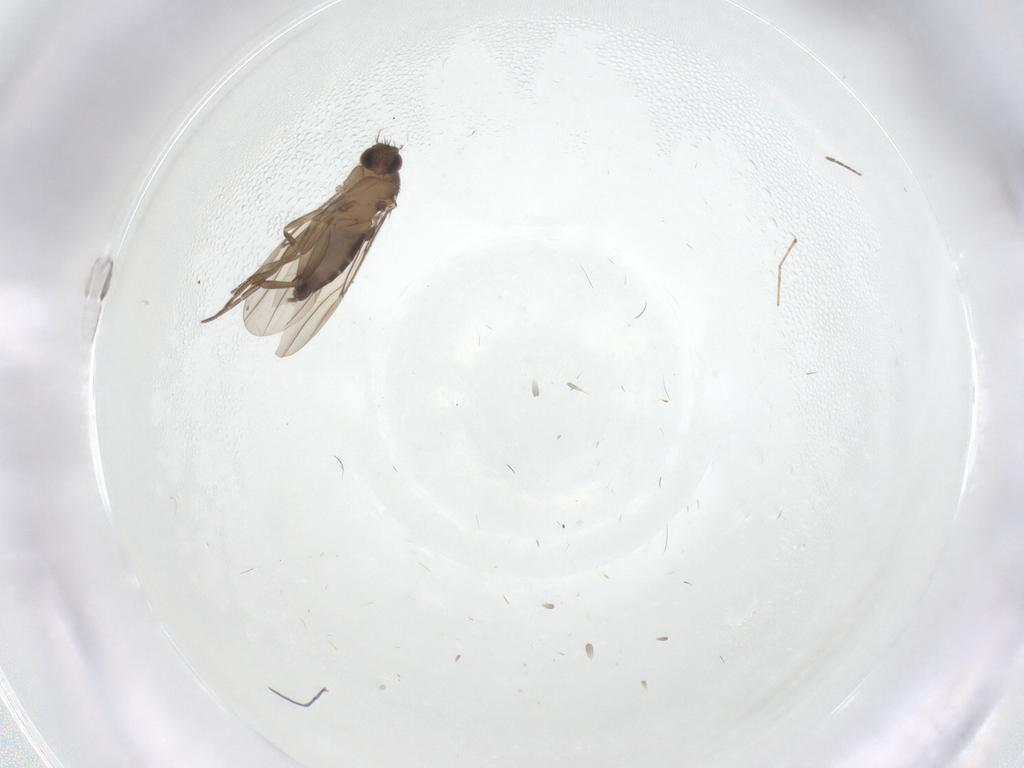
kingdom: Animalia
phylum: Arthropoda
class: Insecta
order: Diptera
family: Phoridae
